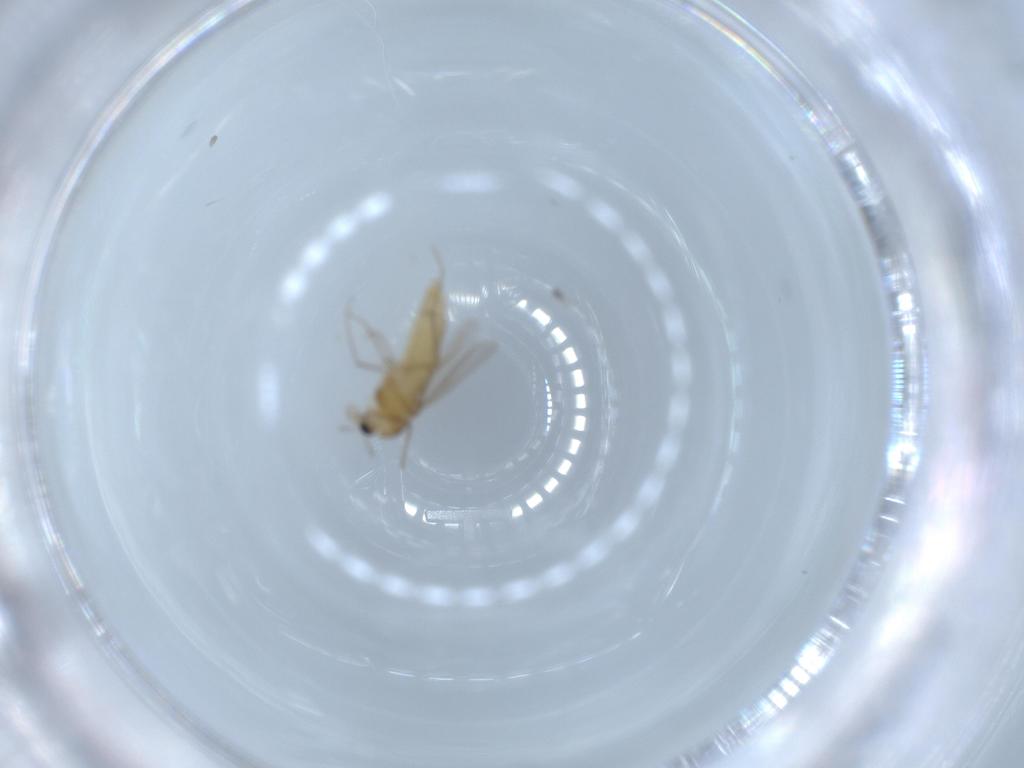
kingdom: Animalia
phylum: Arthropoda
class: Insecta
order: Diptera
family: Chironomidae
